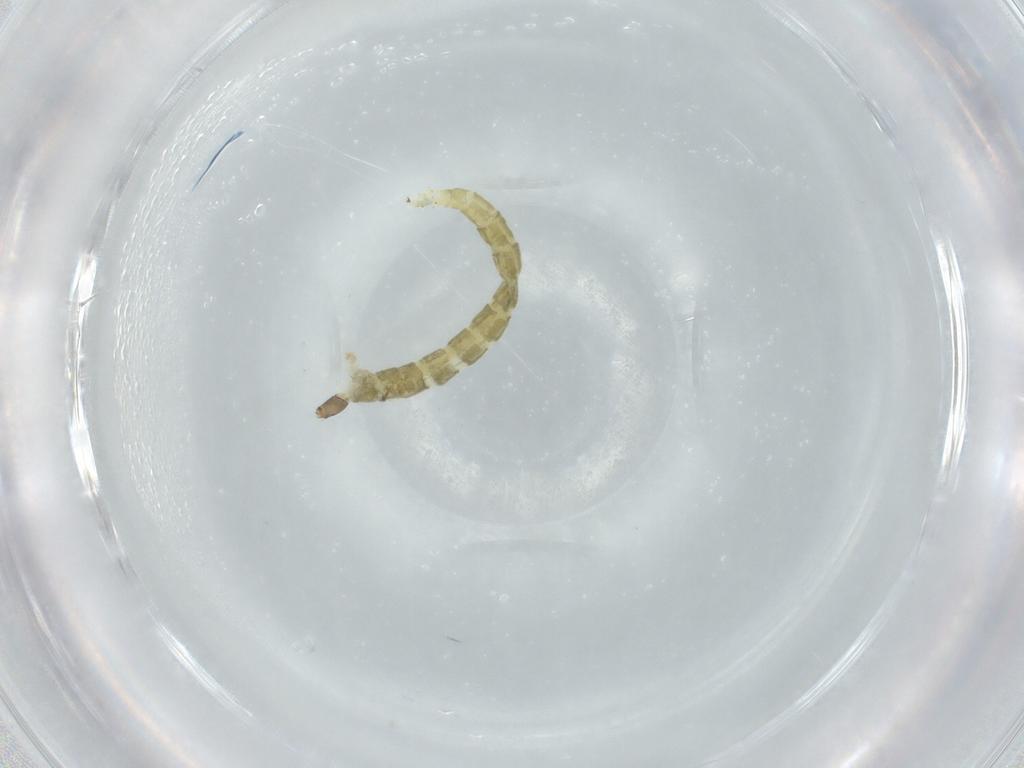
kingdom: Animalia
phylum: Arthropoda
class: Insecta
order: Diptera
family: Chironomidae
